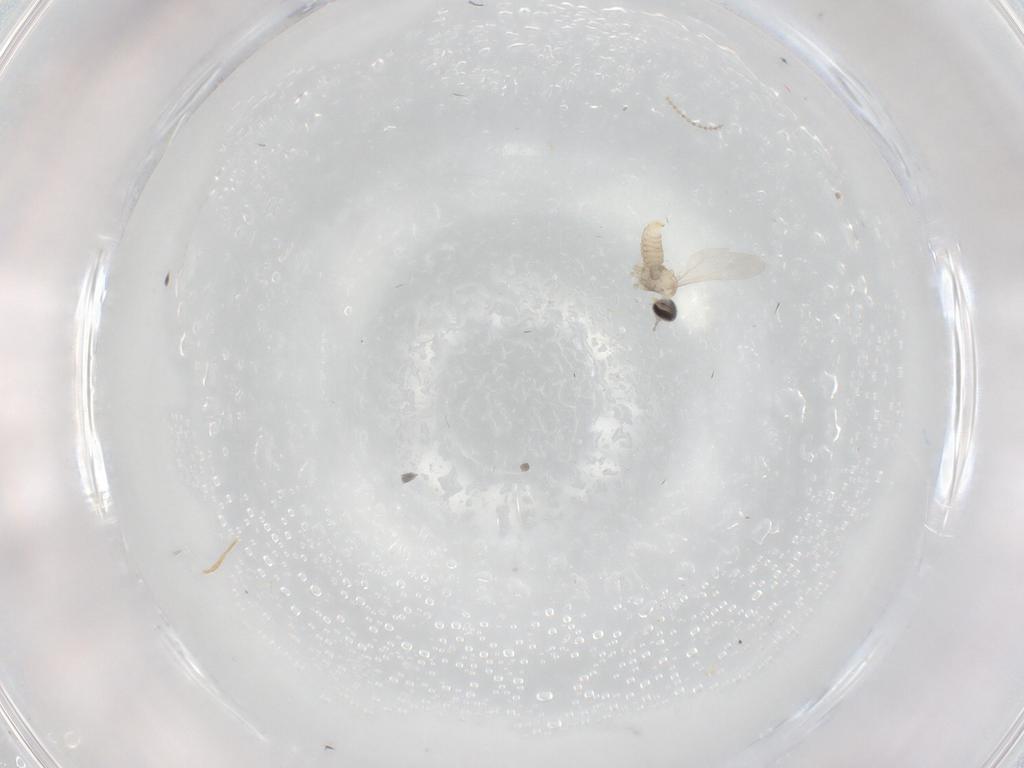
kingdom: Animalia
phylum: Arthropoda
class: Insecta
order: Diptera
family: Cecidomyiidae
